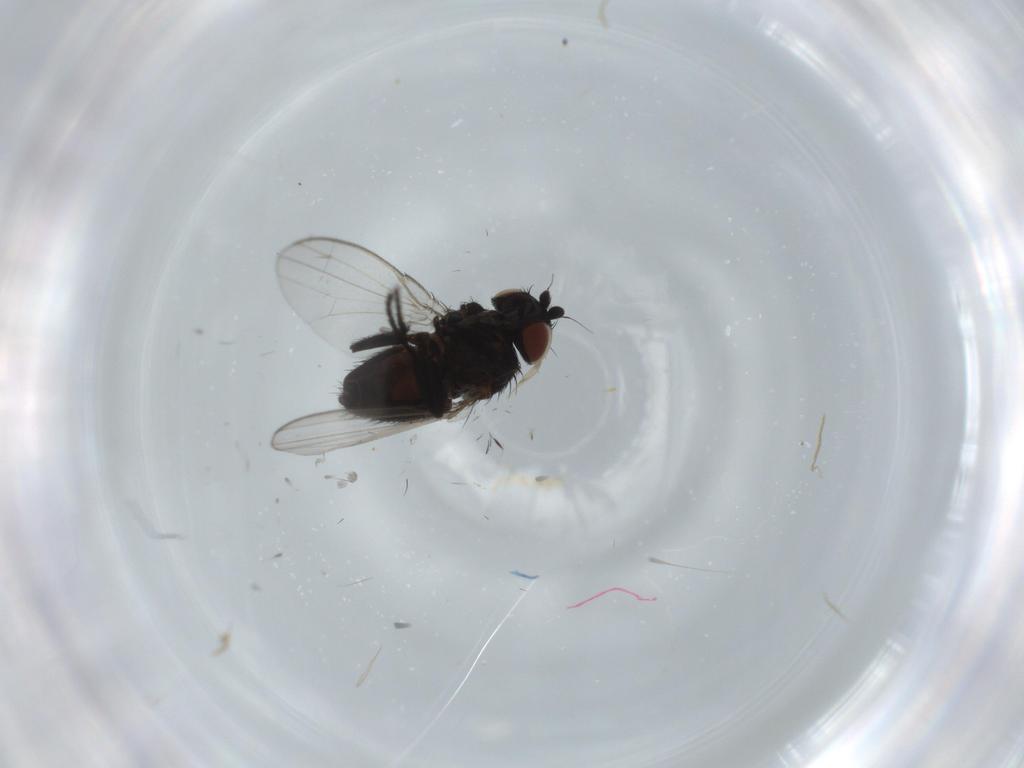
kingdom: Animalia
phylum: Arthropoda
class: Insecta
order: Diptera
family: Milichiidae
